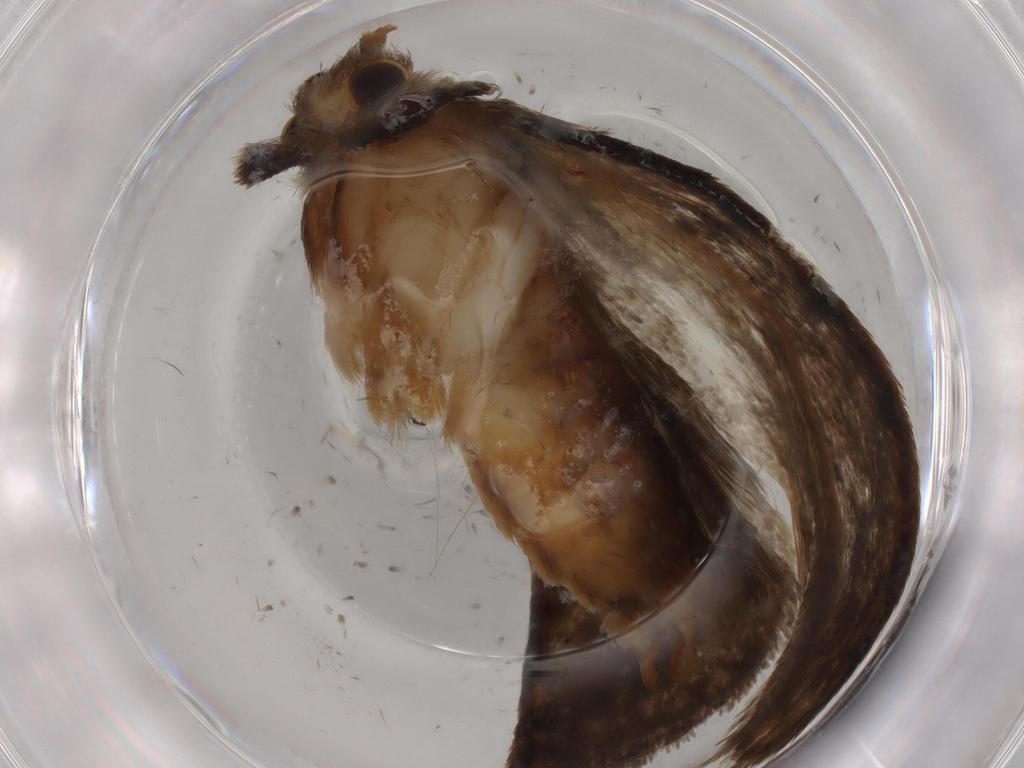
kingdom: Animalia
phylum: Arthropoda
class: Insecta
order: Lepidoptera
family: Tineidae
